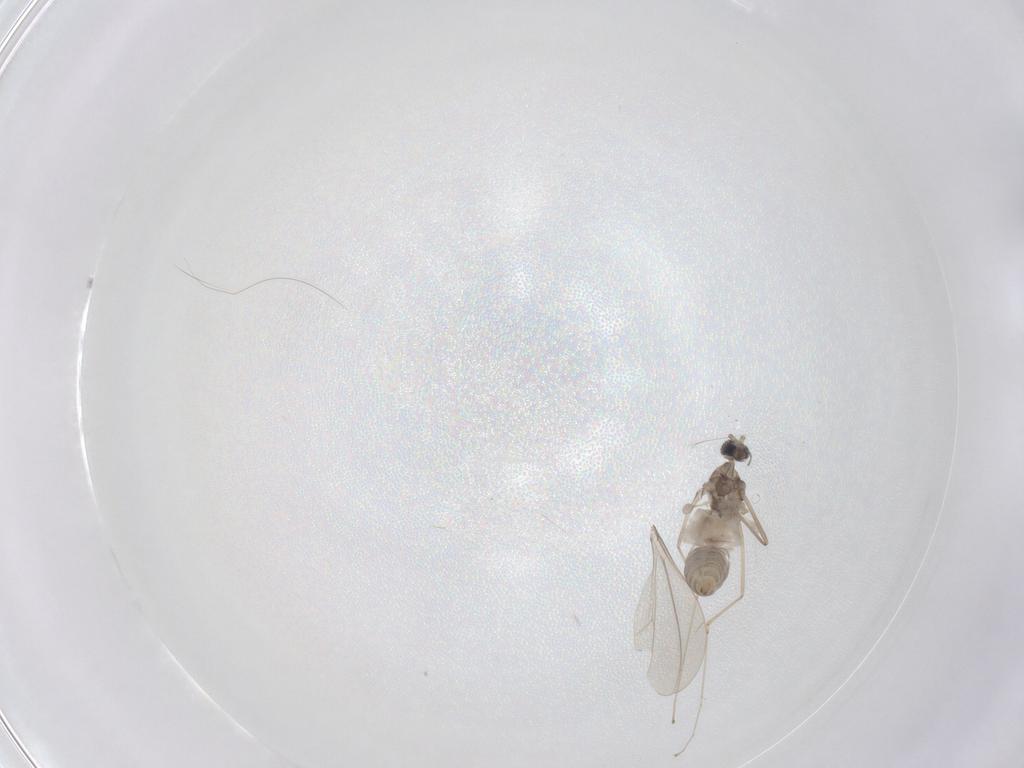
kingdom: Animalia
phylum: Arthropoda
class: Insecta
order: Diptera
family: Cecidomyiidae
